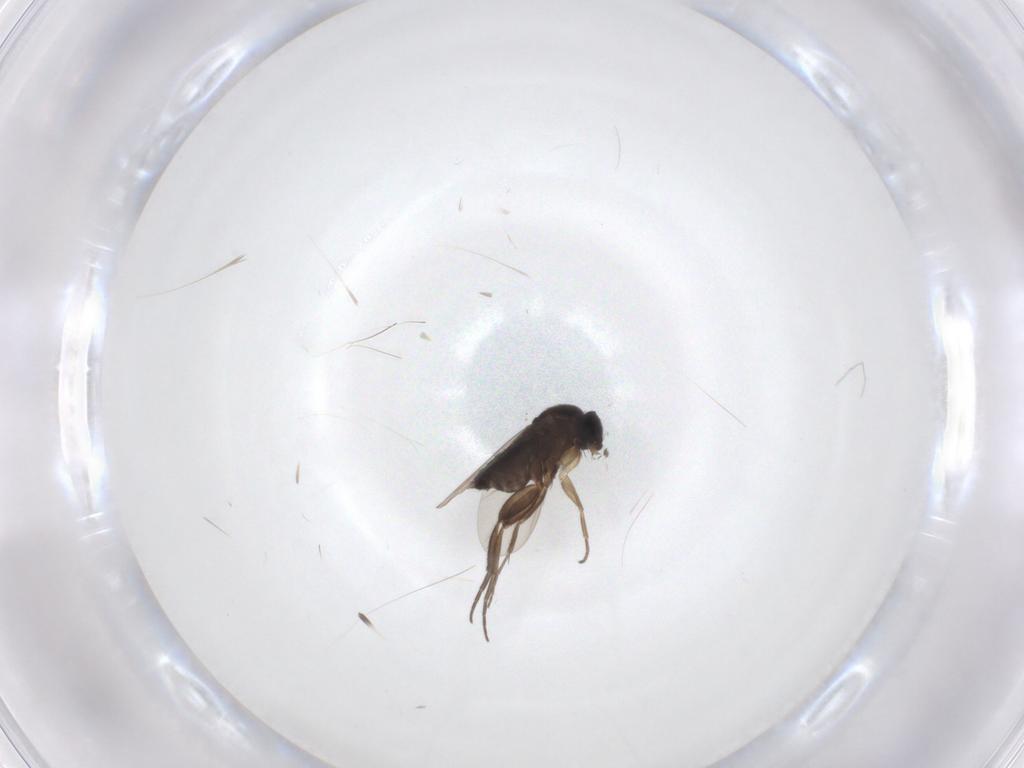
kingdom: Animalia
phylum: Arthropoda
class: Insecta
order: Diptera
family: Phoridae
